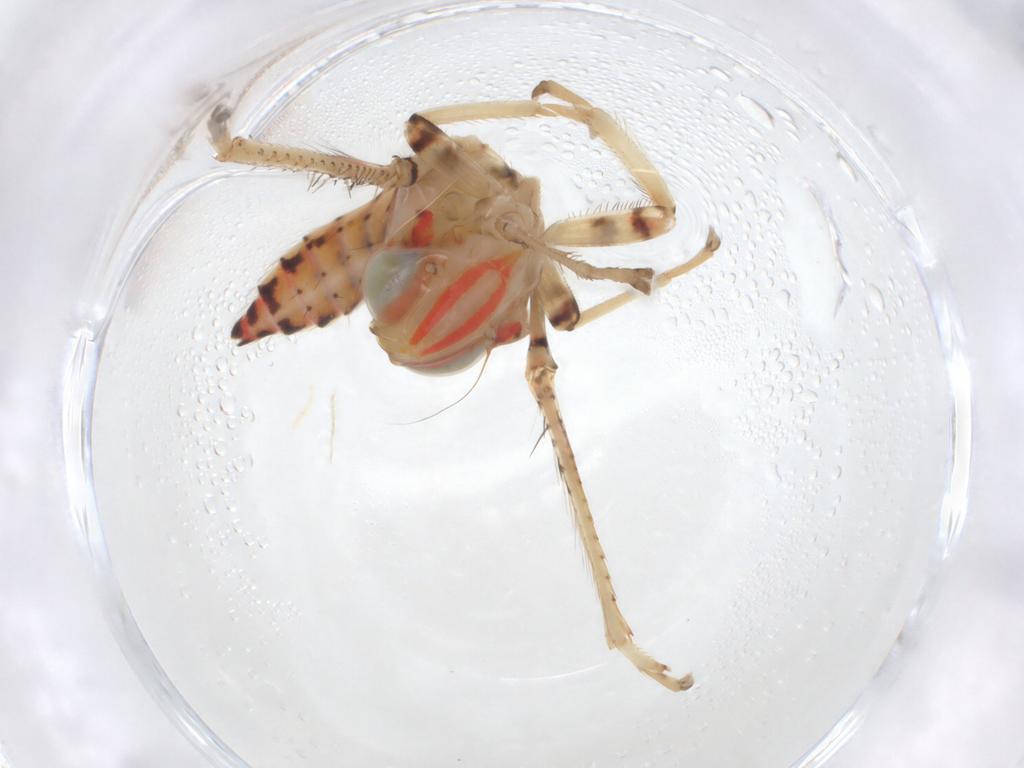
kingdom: Animalia
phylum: Arthropoda
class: Insecta
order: Hemiptera
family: Cicadellidae
